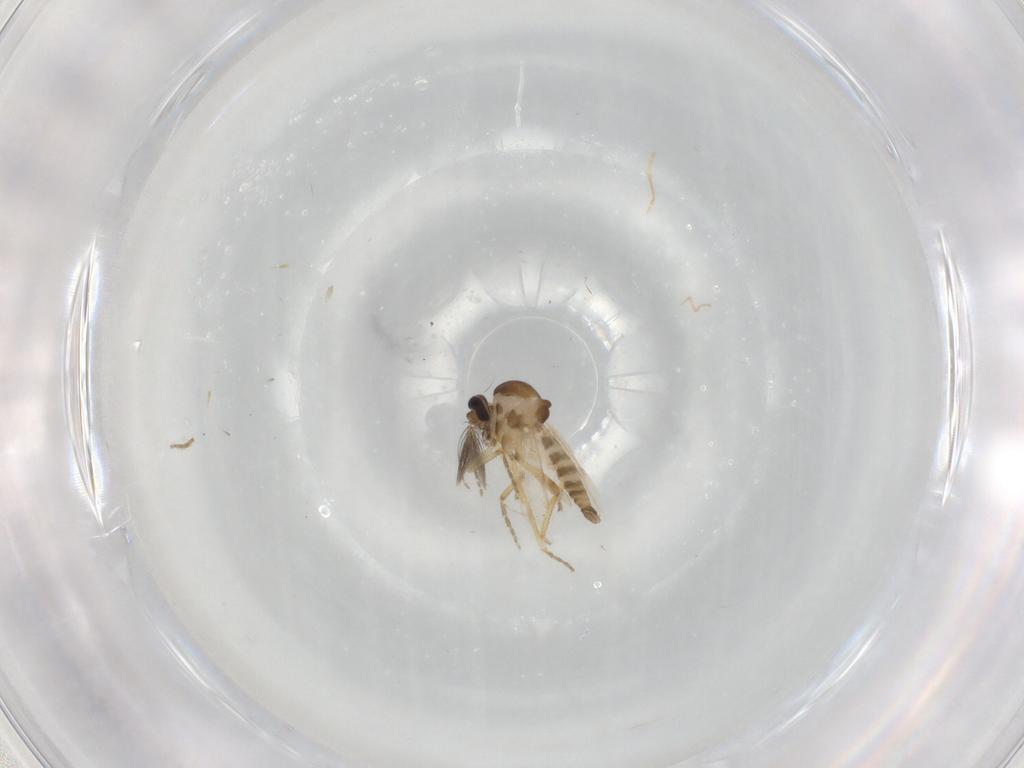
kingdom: Animalia
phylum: Arthropoda
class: Insecta
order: Diptera
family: Ceratopogonidae
